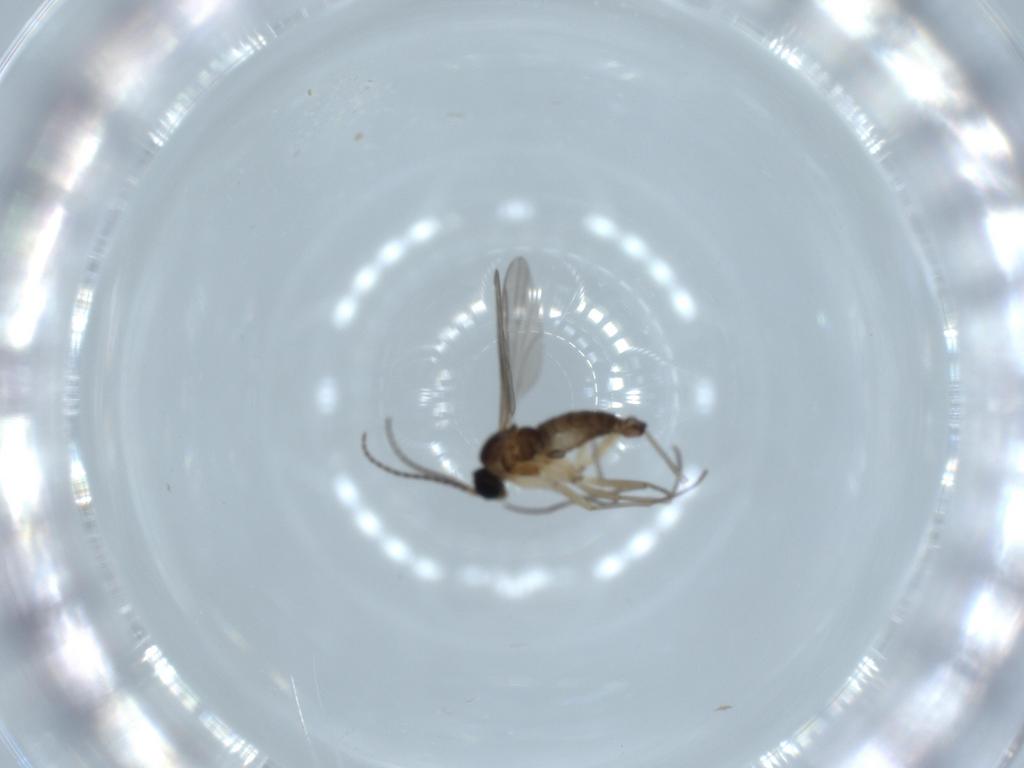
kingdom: Animalia
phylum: Arthropoda
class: Insecta
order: Diptera
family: Sciaridae
